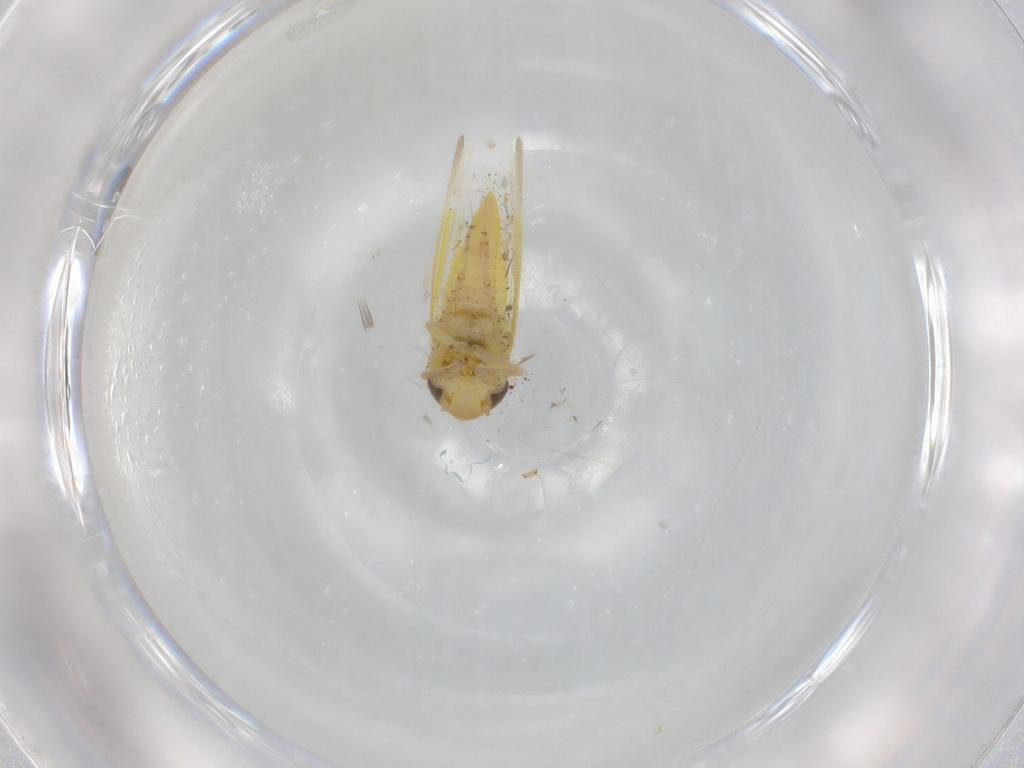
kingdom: Animalia
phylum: Arthropoda
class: Insecta
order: Hemiptera
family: Cicadellidae
